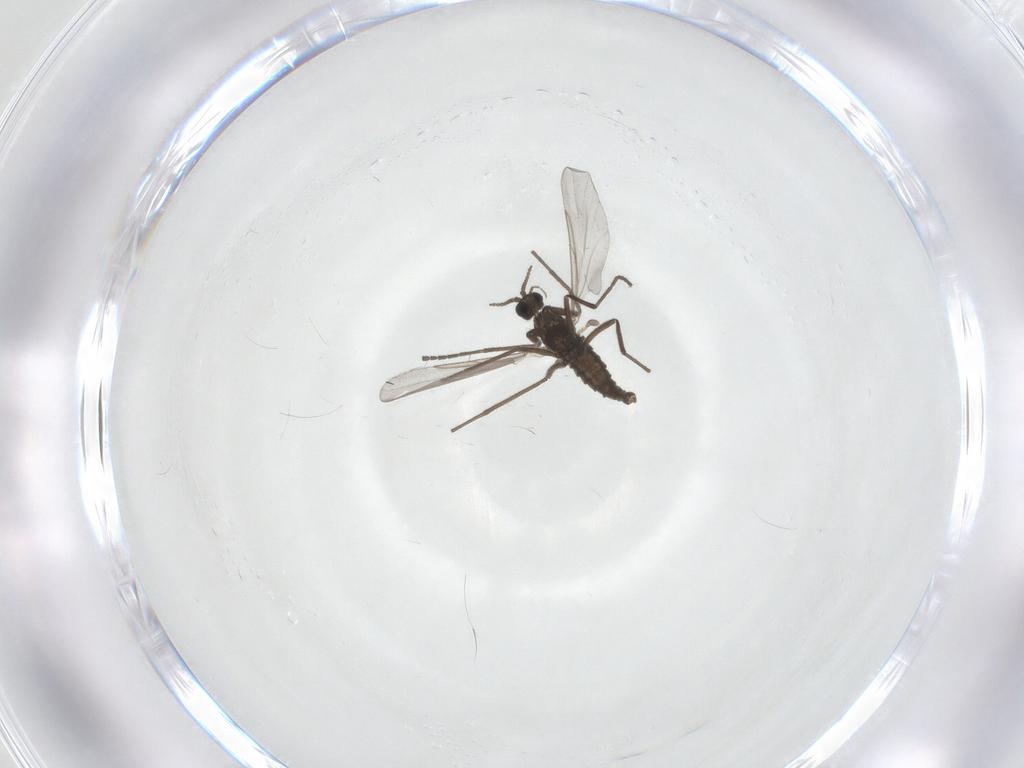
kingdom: Animalia
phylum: Arthropoda
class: Insecta
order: Diptera
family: Cecidomyiidae
